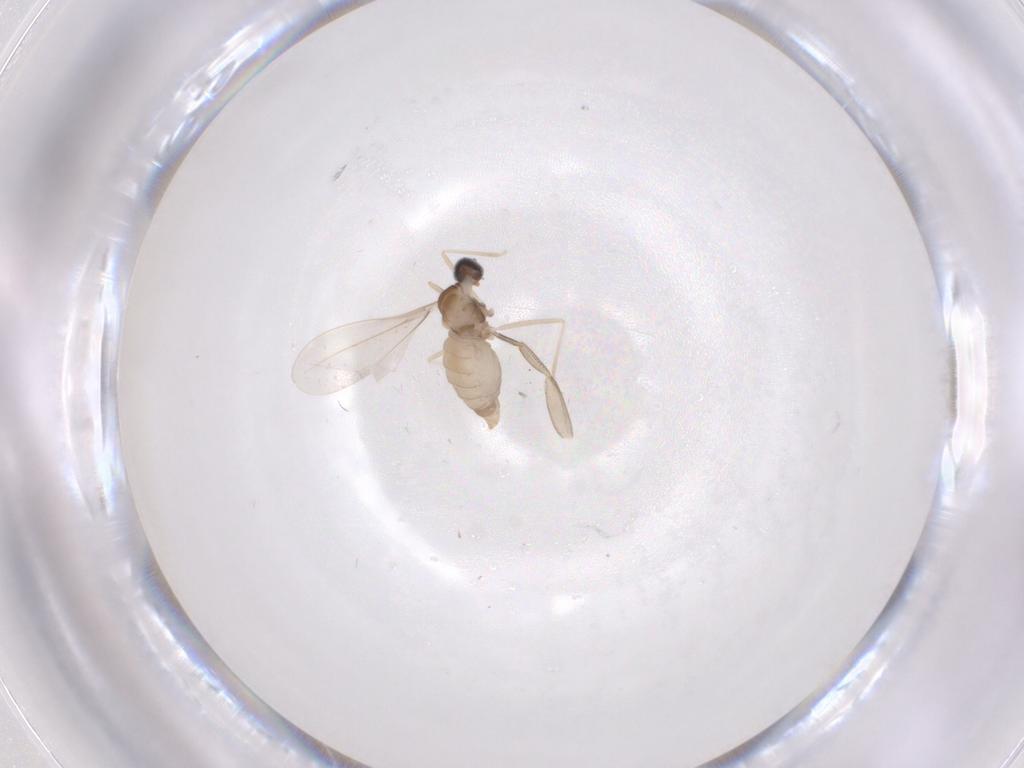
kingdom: Animalia
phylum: Arthropoda
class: Insecta
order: Diptera
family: Cecidomyiidae
